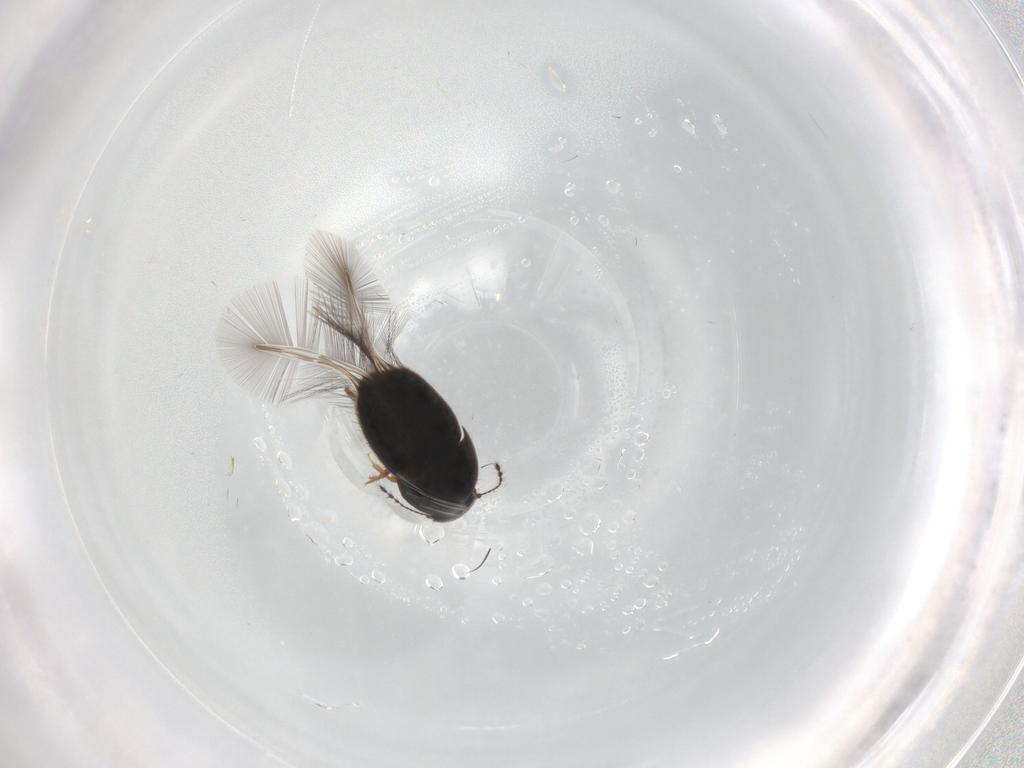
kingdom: Animalia
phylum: Arthropoda
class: Insecta
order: Coleoptera
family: Ptiliidae
